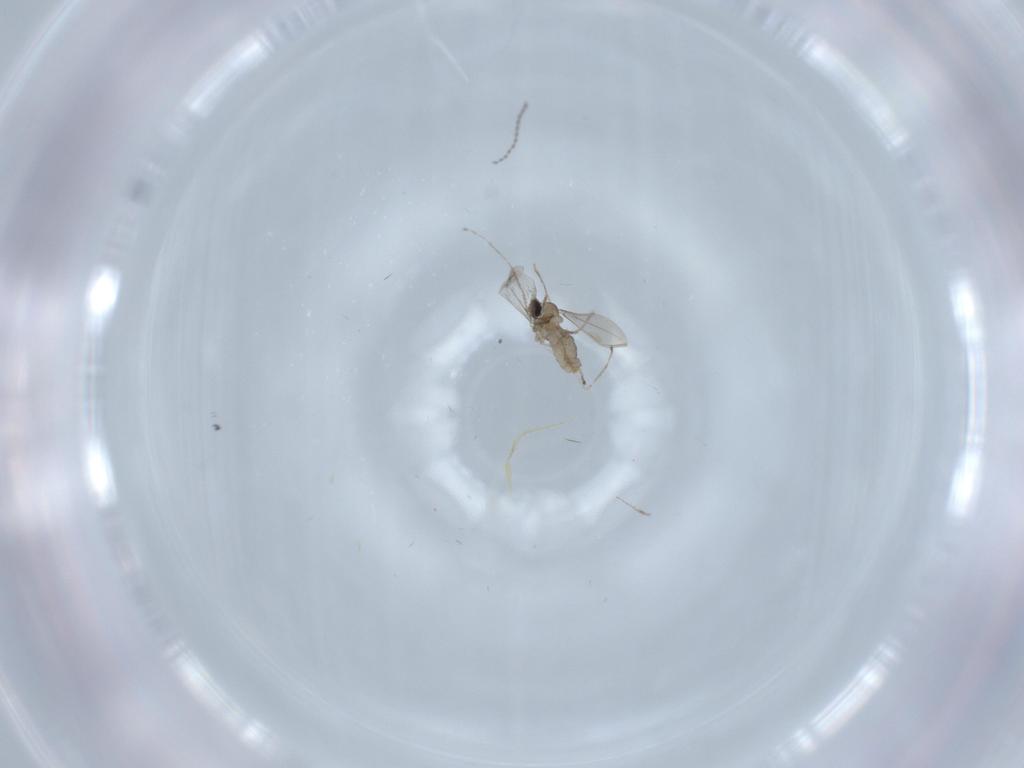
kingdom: Animalia
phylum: Arthropoda
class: Insecta
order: Diptera
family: Cecidomyiidae
